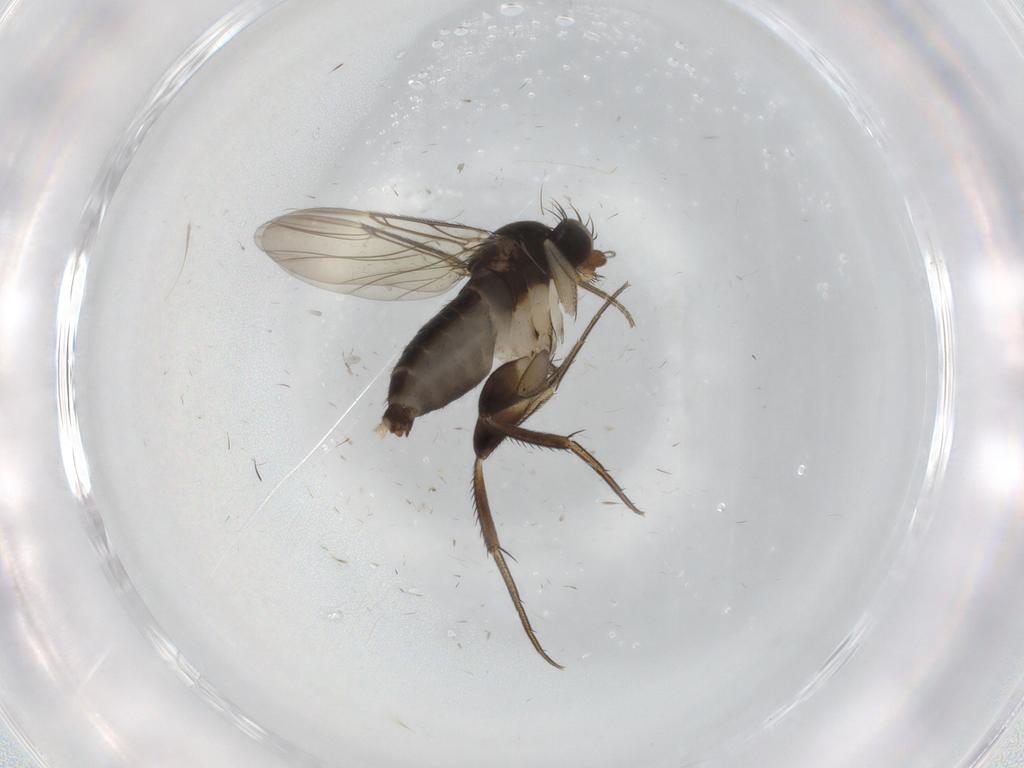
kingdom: Animalia
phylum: Arthropoda
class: Insecta
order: Diptera
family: Phoridae
